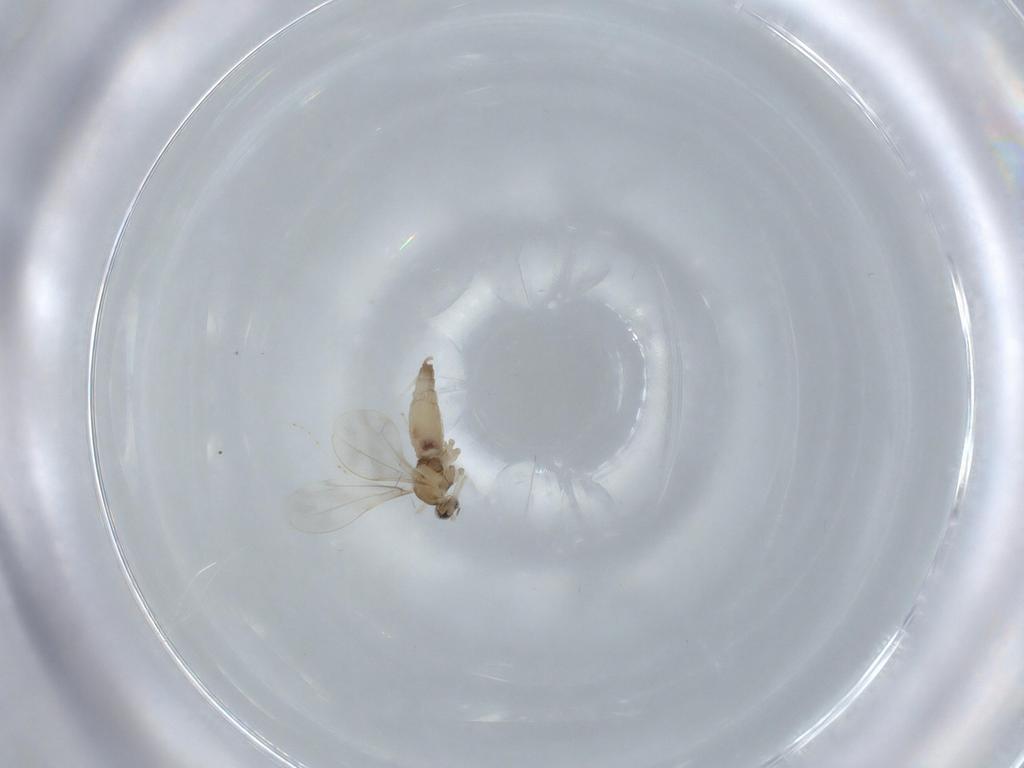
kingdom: Animalia
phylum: Arthropoda
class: Insecta
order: Diptera
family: Cecidomyiidae
